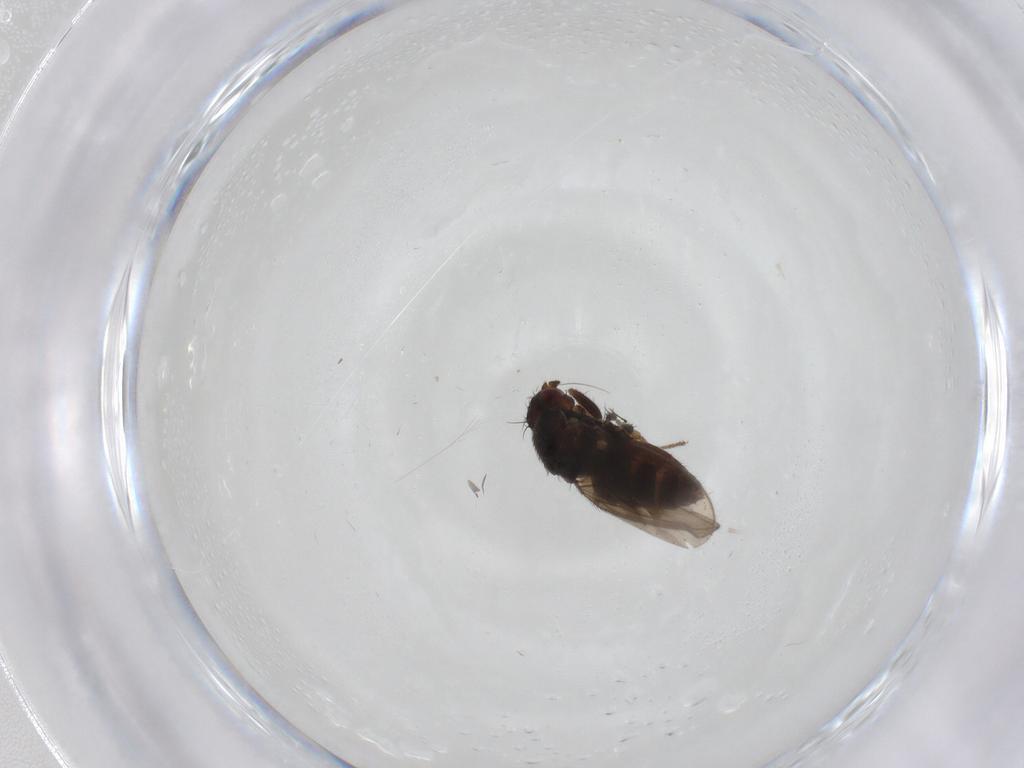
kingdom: Animalia
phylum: Arthropoda
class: Insecta
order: Diptera
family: Sphaeroceridae
